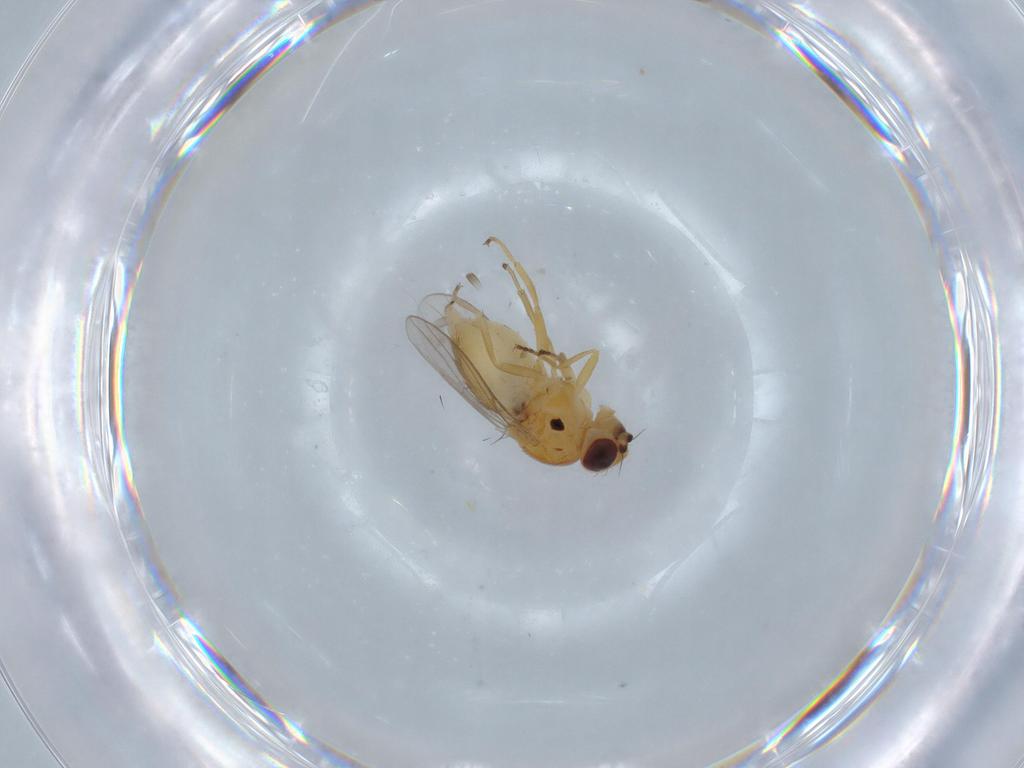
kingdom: Animalia
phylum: Arthropoda
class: Insecta
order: Diptera
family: Chloropidae
